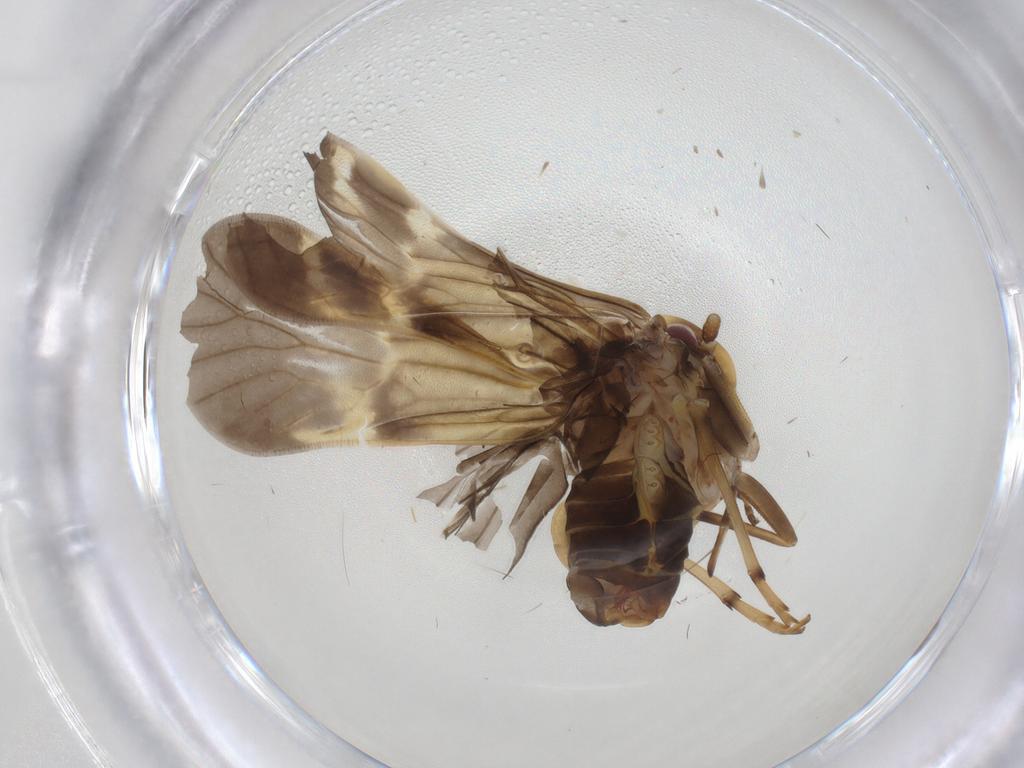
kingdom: Animalia
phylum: Arthropoda
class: Insecta
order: Hemiptera
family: Cixiidae
